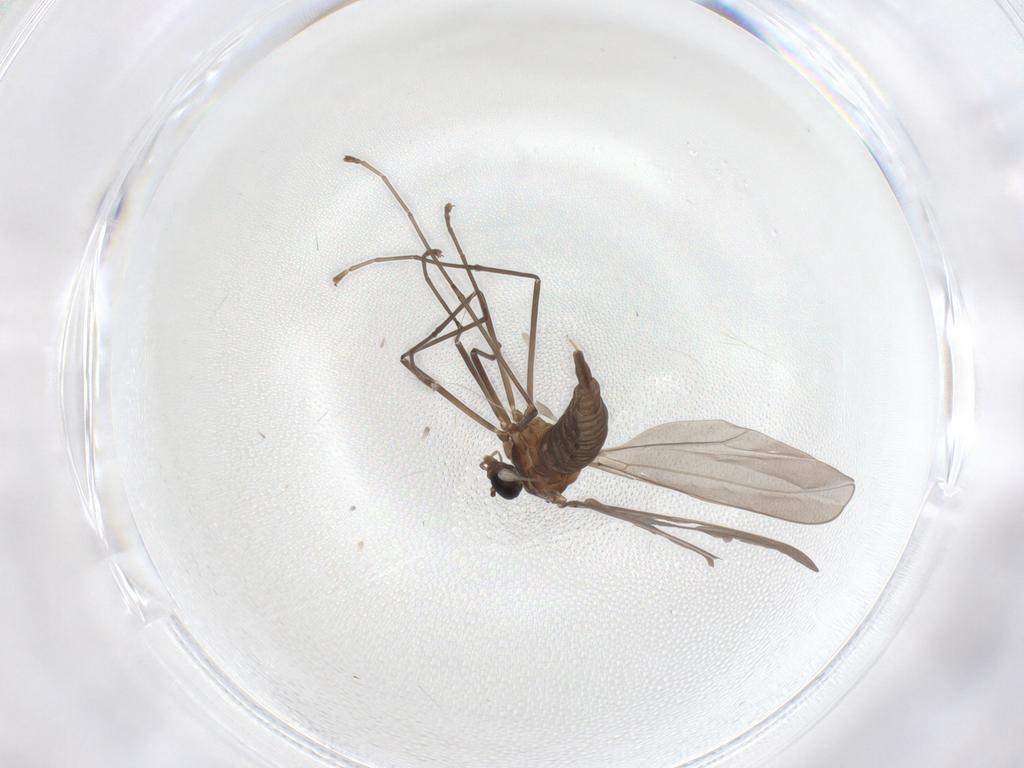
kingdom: Animalia
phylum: Arthropoda
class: Insecta
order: Diptera
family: Cecidomyiidae
